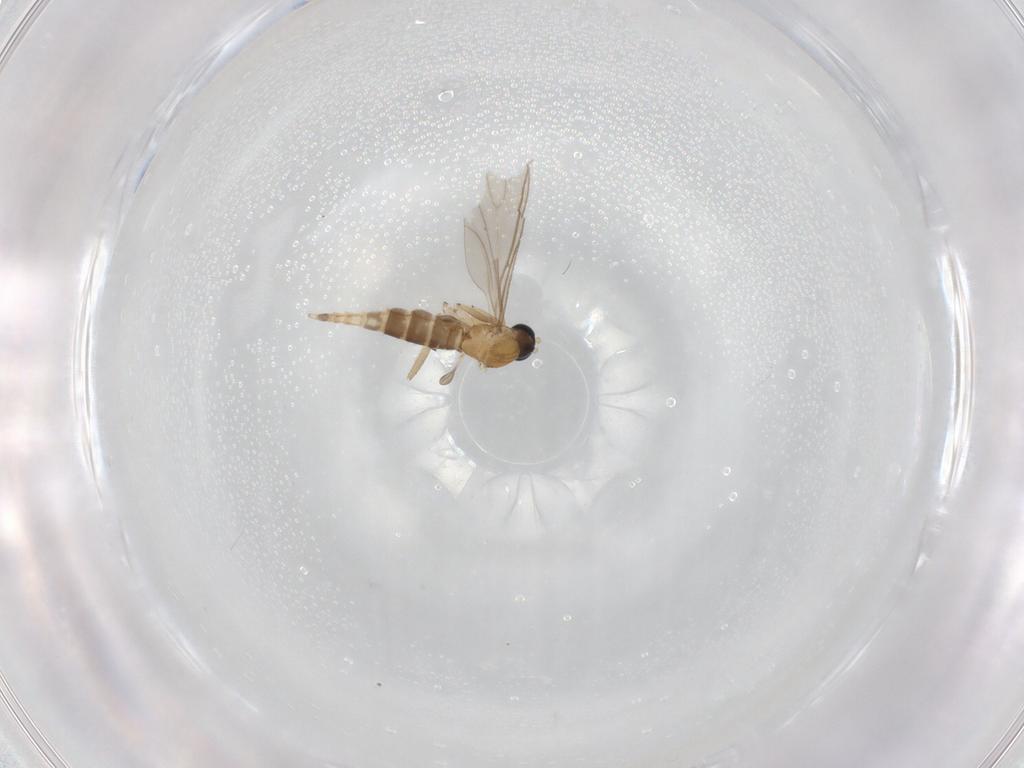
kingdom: Animalia
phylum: Arthropoda
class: Insecta
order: Diptera
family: Sciaridae
